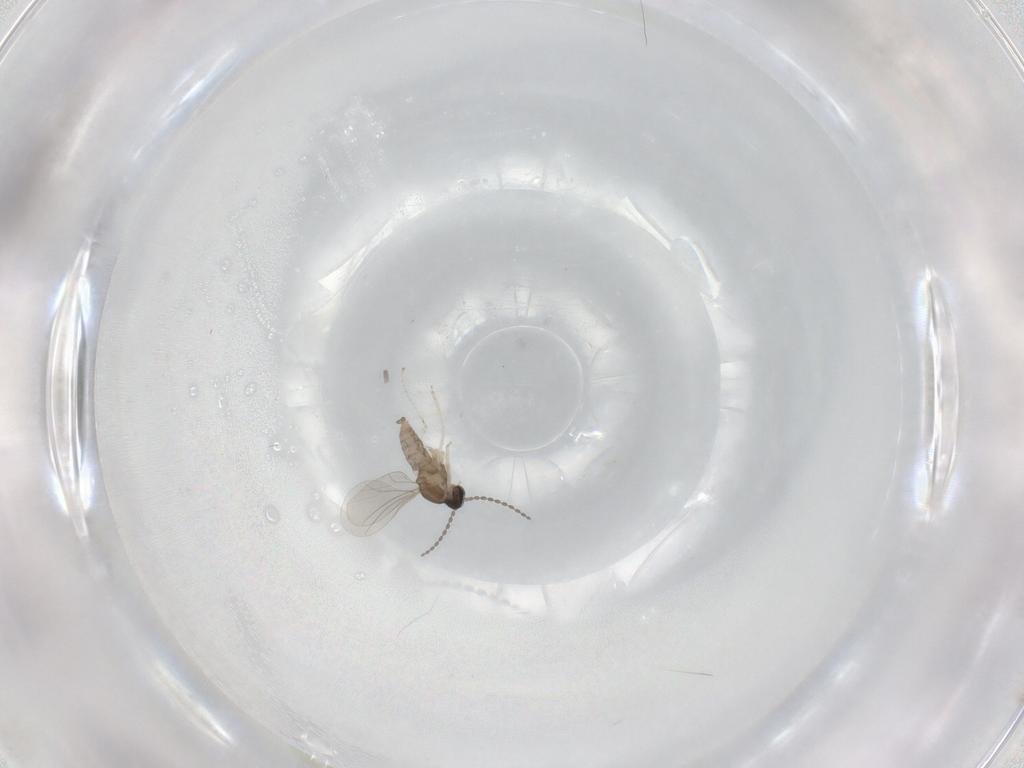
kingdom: Animalia
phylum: Arthropoda
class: Insecta
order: Diptera
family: Cecidomyiidae
